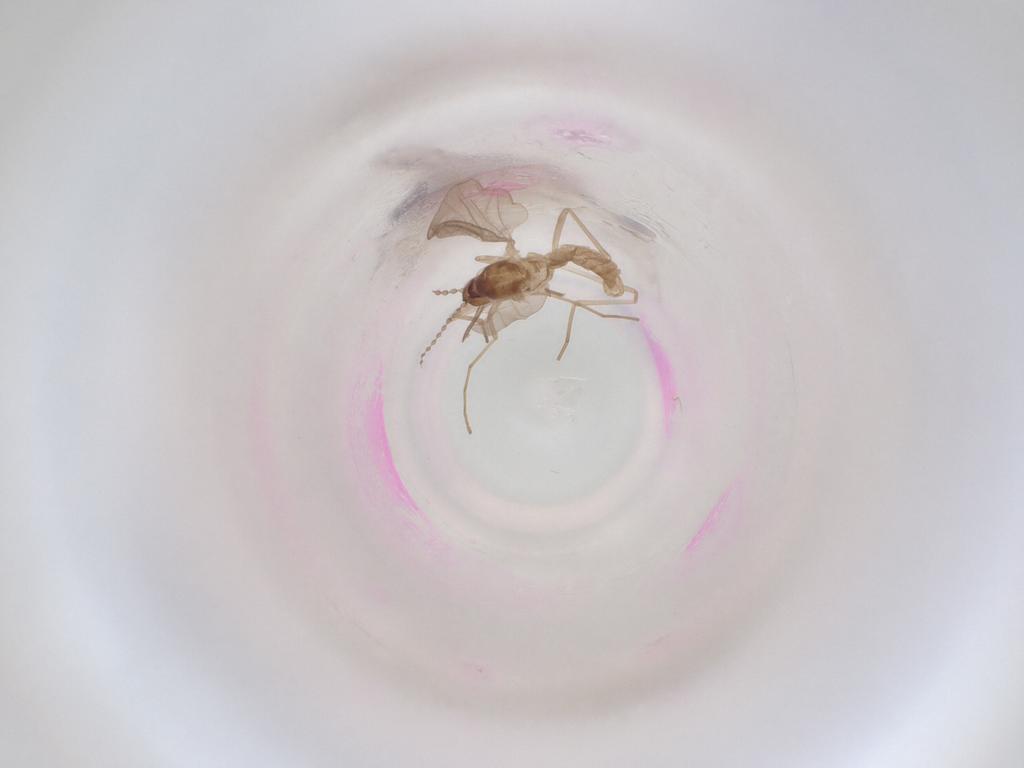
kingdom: Animalia
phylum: Arthropoda
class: Insecta
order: Diptera
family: Cecidomyiidae
